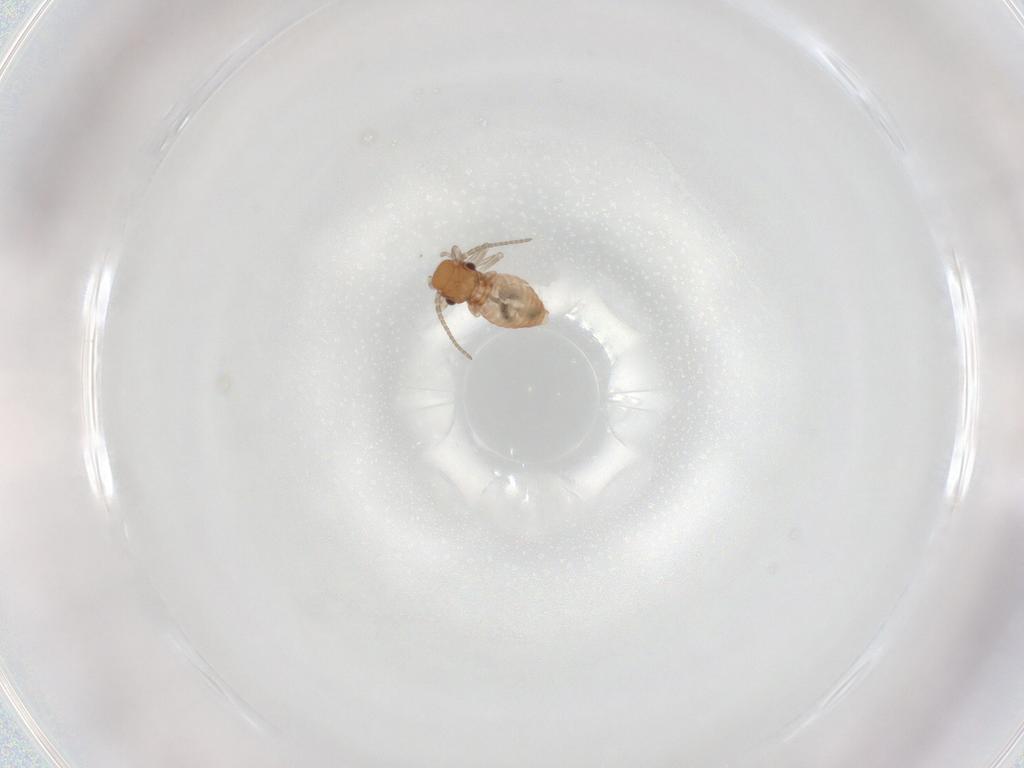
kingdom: Animalia
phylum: Arthropoda
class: Insecta
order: Psocodea
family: Caeciliusidae
